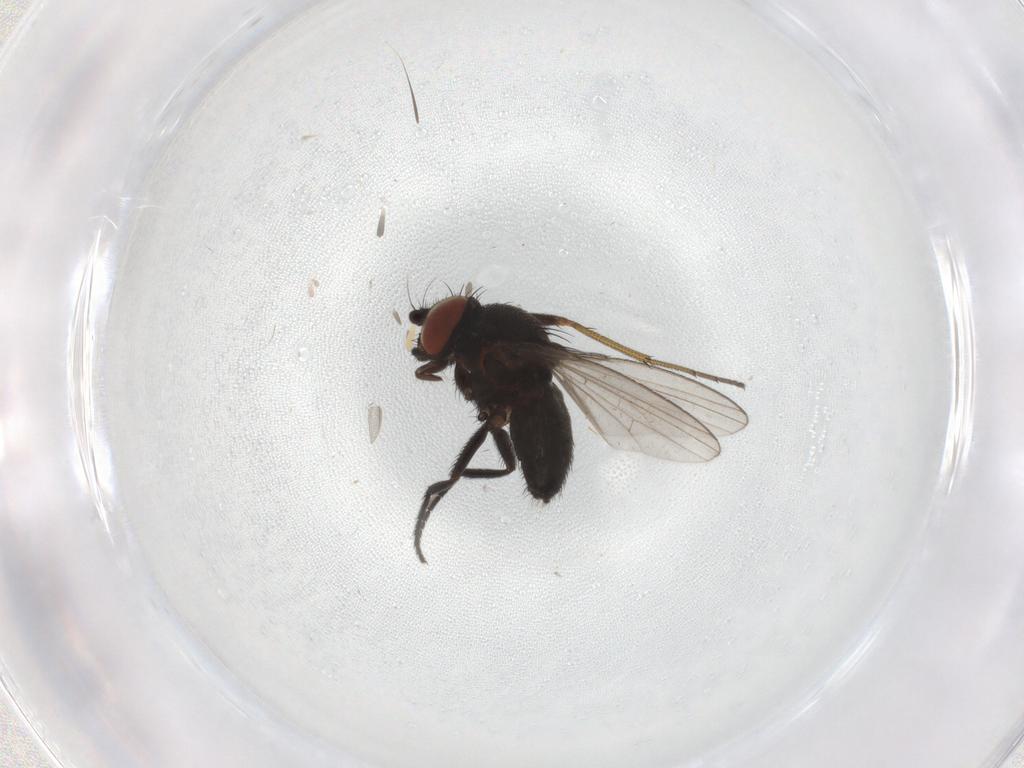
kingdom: Animalia
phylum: Arthropoda
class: Insecta
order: Diptera
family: Milichiidae
